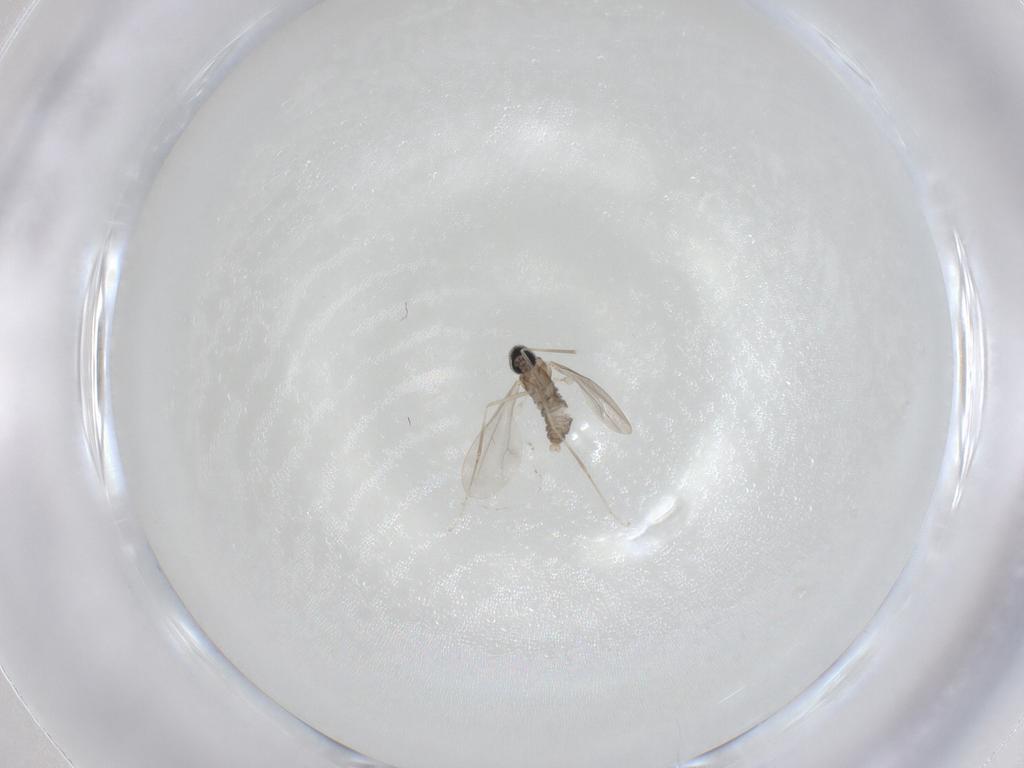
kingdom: Animalia
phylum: Arthropoda
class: Insecta
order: Diptera
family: Cecidomyiidae
